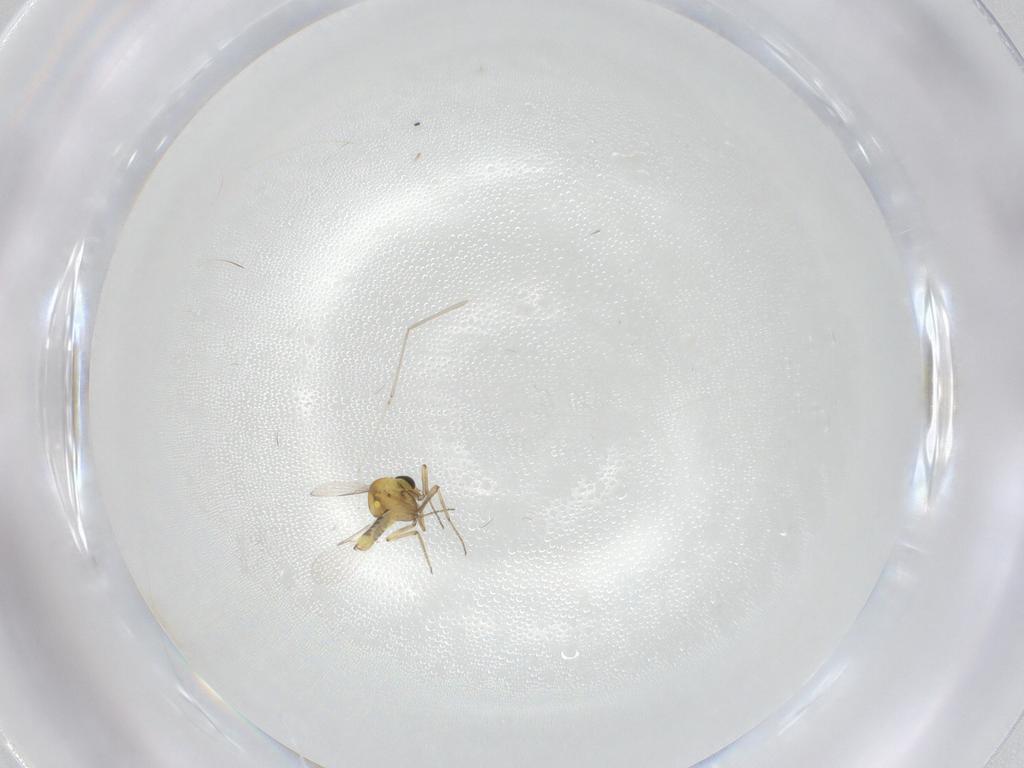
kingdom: Animalia
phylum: Arthropoda
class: Insecta
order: Diptera
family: Ceratopogonidae
